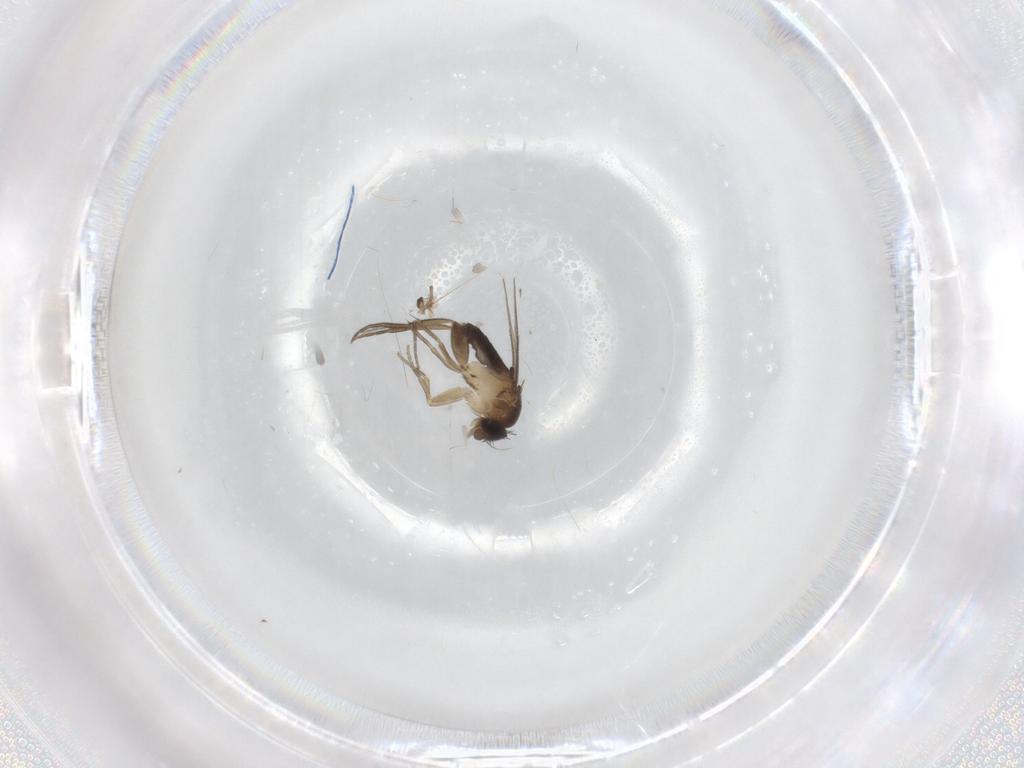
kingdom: Animalia
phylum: Arthropoda
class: Insecta
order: Diptera
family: Phoridae
